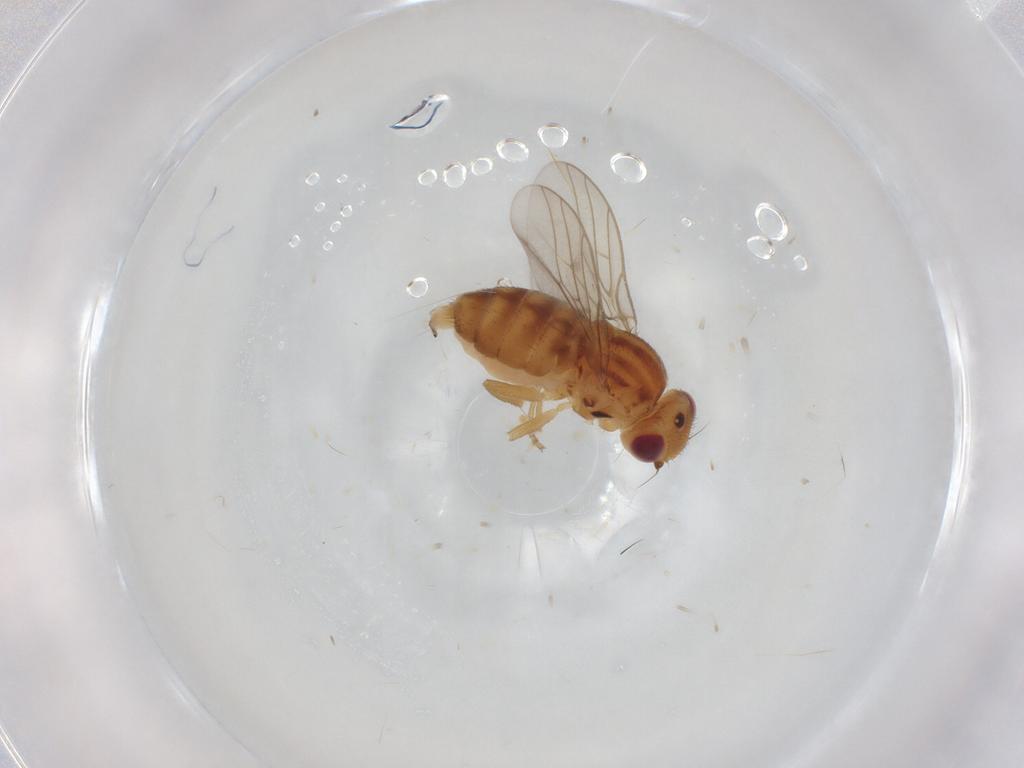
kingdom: Animalia
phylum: Arthropoda
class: Insecta
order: Diptera
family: Chloropidae
